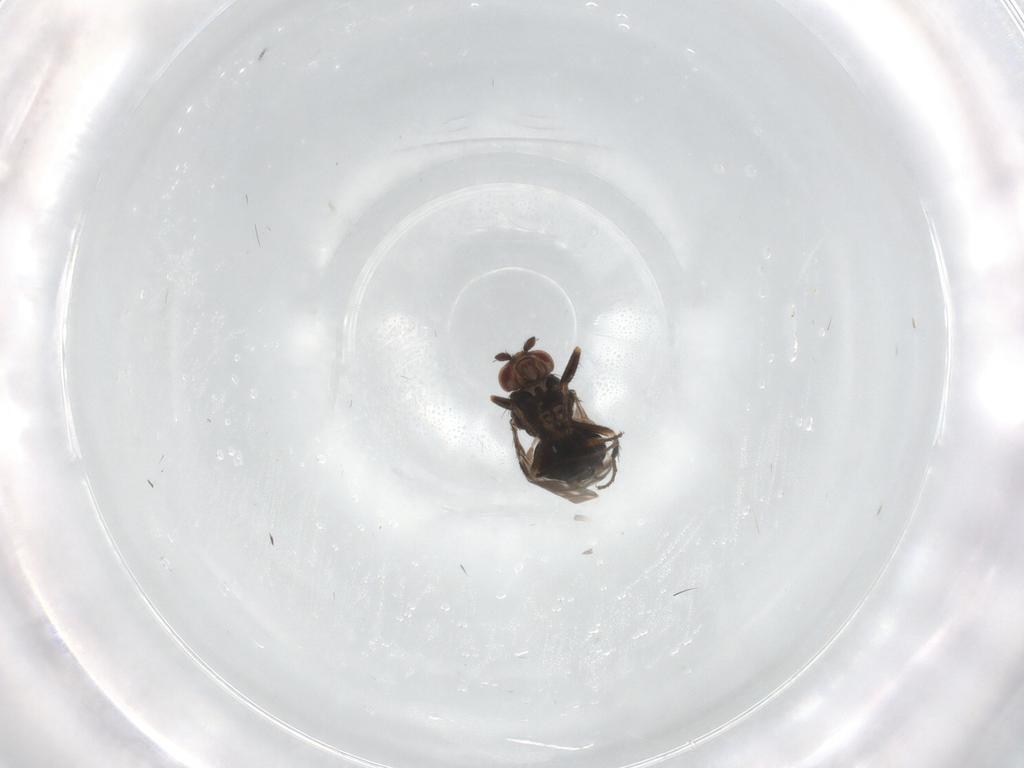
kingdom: Animalia
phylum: Arthropoda
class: Insecta
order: Diptera
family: Sphaeroceridae
